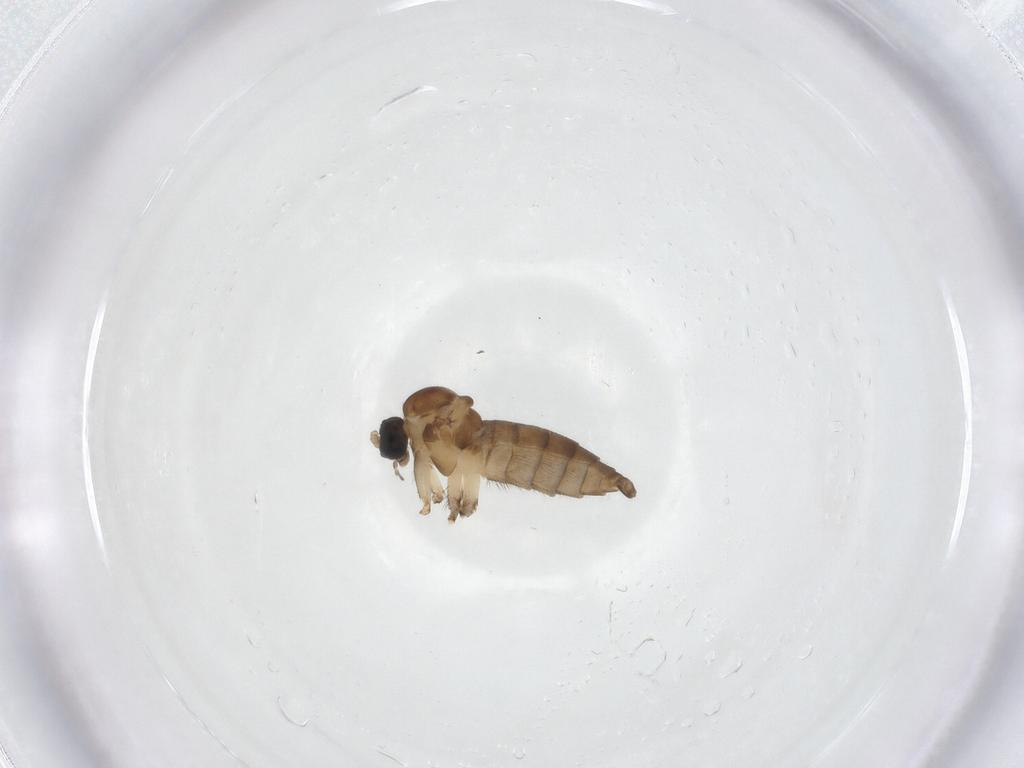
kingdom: Animalia
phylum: Arthropoda
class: Insecta
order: Diptera
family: Sciaridae
